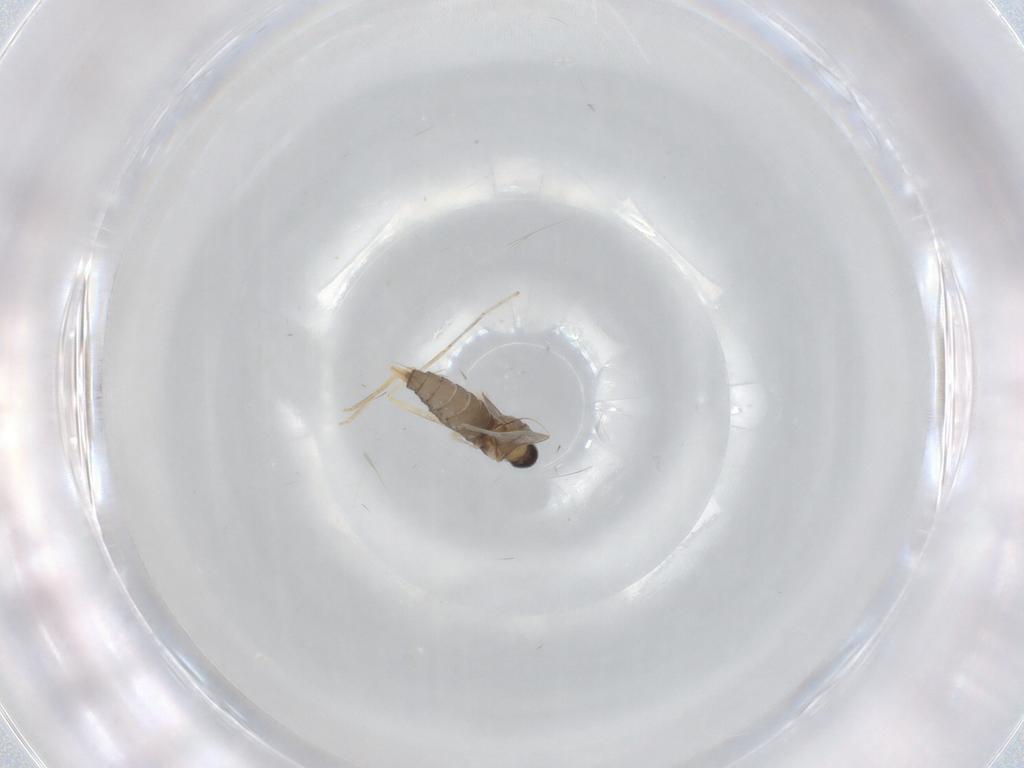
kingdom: Animalia
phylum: Arthropoda
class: Insecta
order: Diptera
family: Cecidomyiidae
